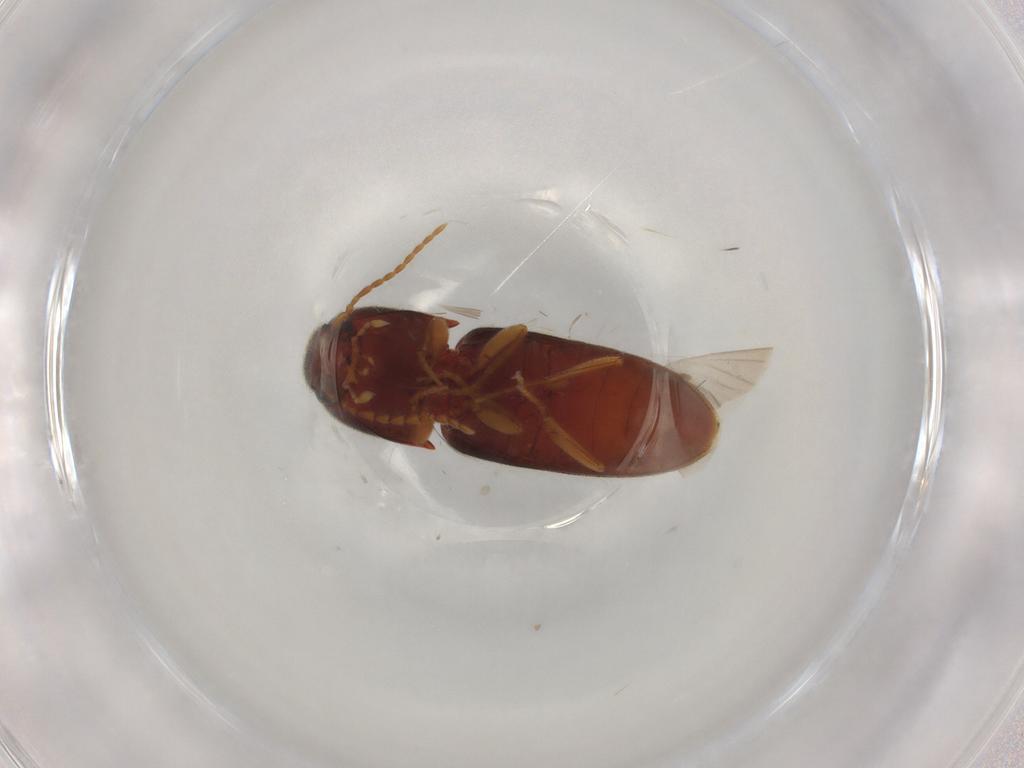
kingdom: Animalia
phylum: Arthropoda
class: Insecta
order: Coleoptera
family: Elateridae
